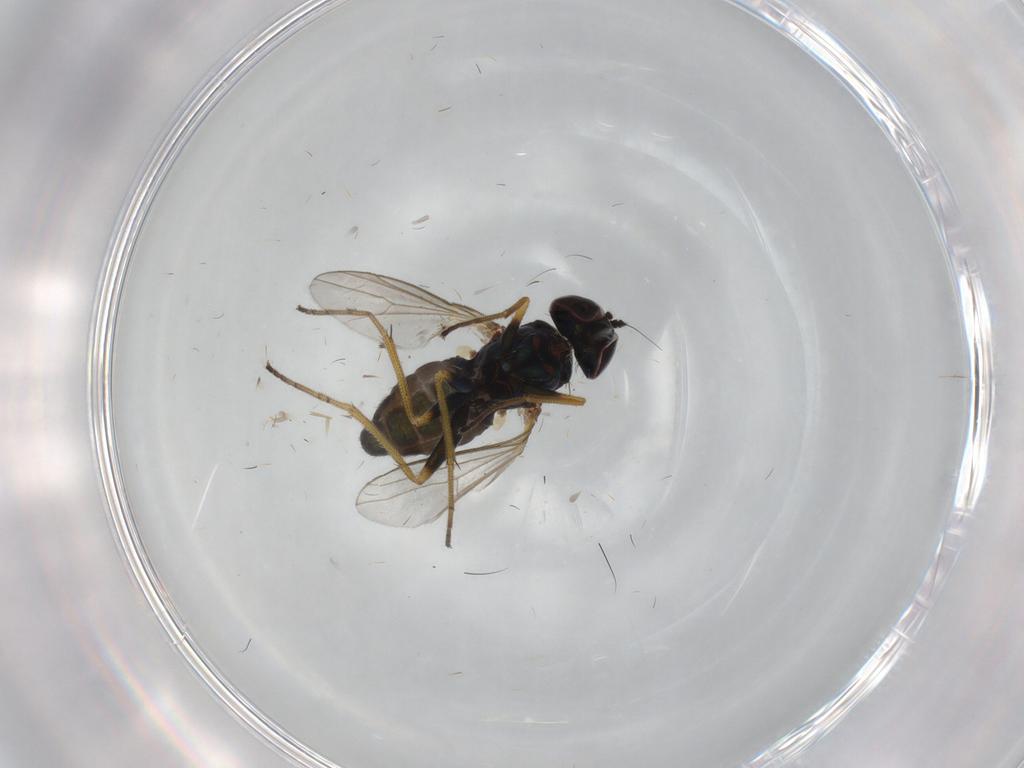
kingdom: Animalia
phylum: Arthropoda
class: Insecta
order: Diptera
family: Dolichopodidae
